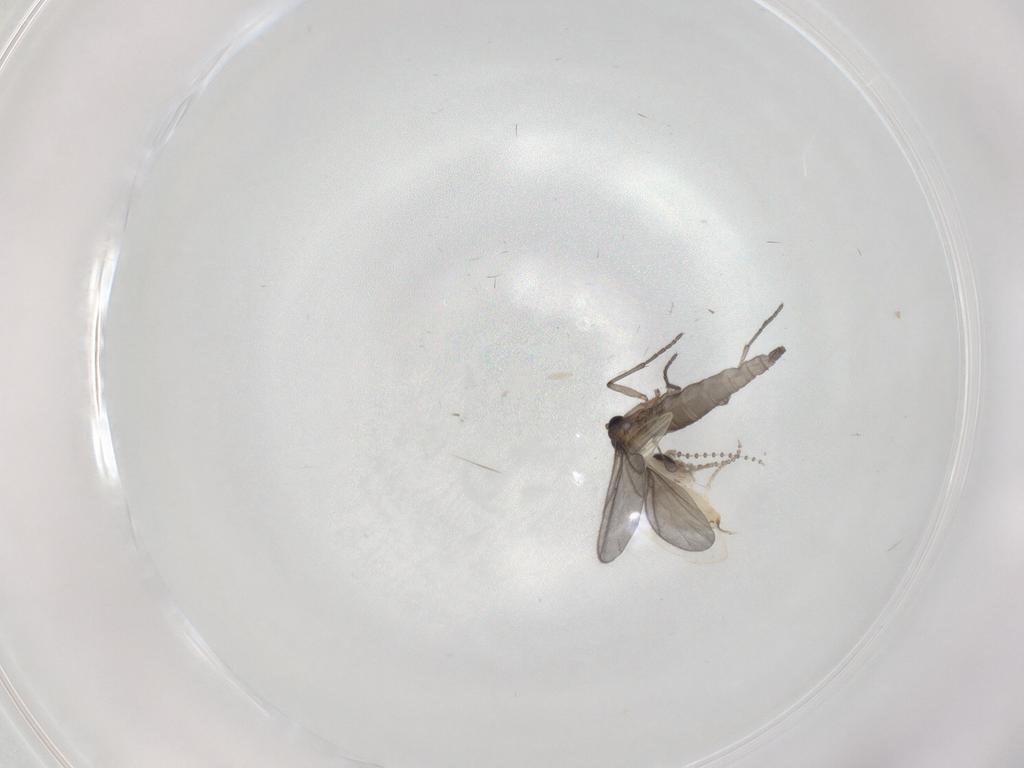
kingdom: Animalia
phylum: Arthropoda
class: Insecta
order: Diptera
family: Psychodidae
